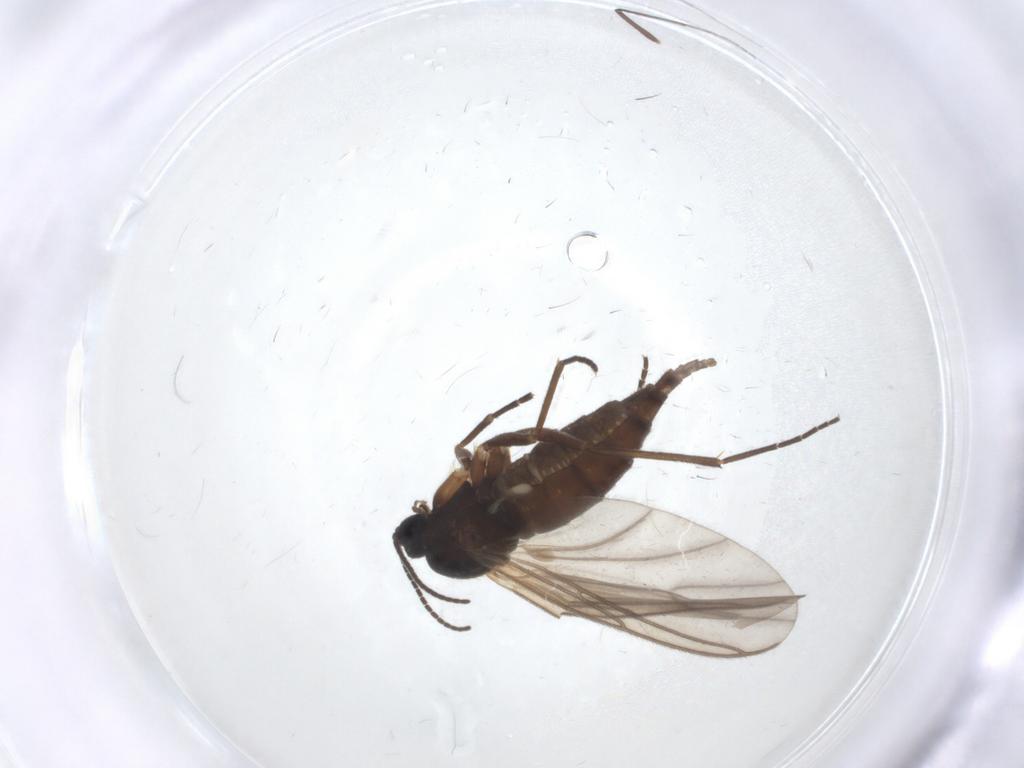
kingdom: Animalia
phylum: Arthropoda
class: Insecta
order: Diptera
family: Sciaridae
